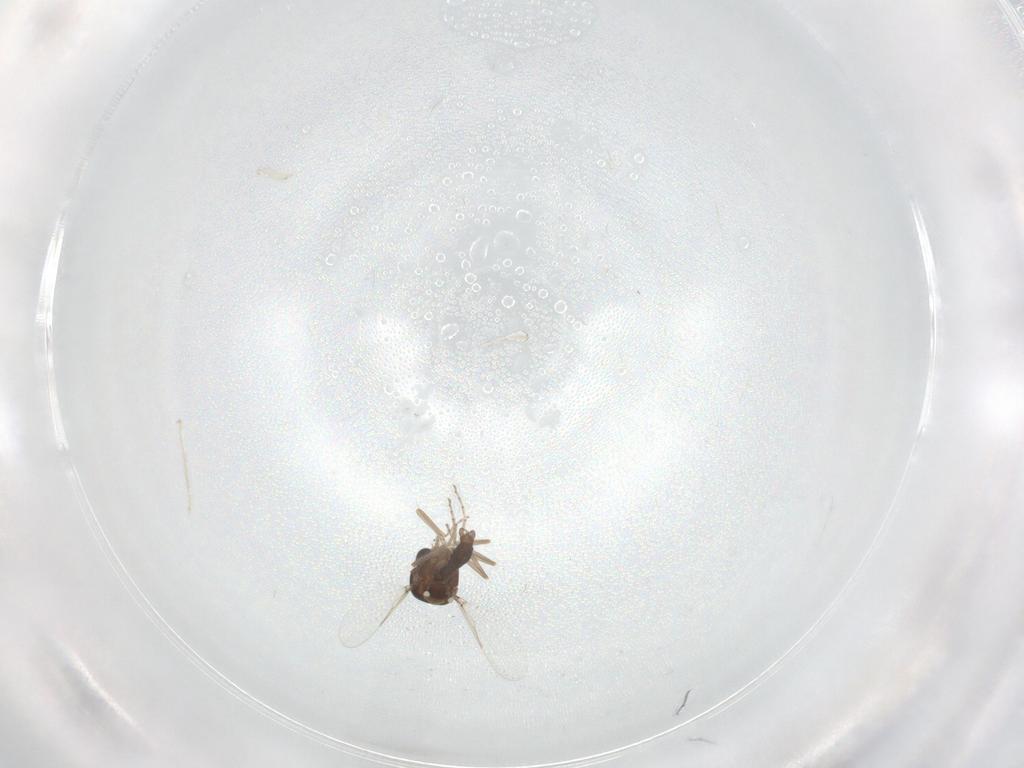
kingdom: Animalia
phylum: Arthropoda
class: Insecta
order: Diptera
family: Ceratopogonidae
